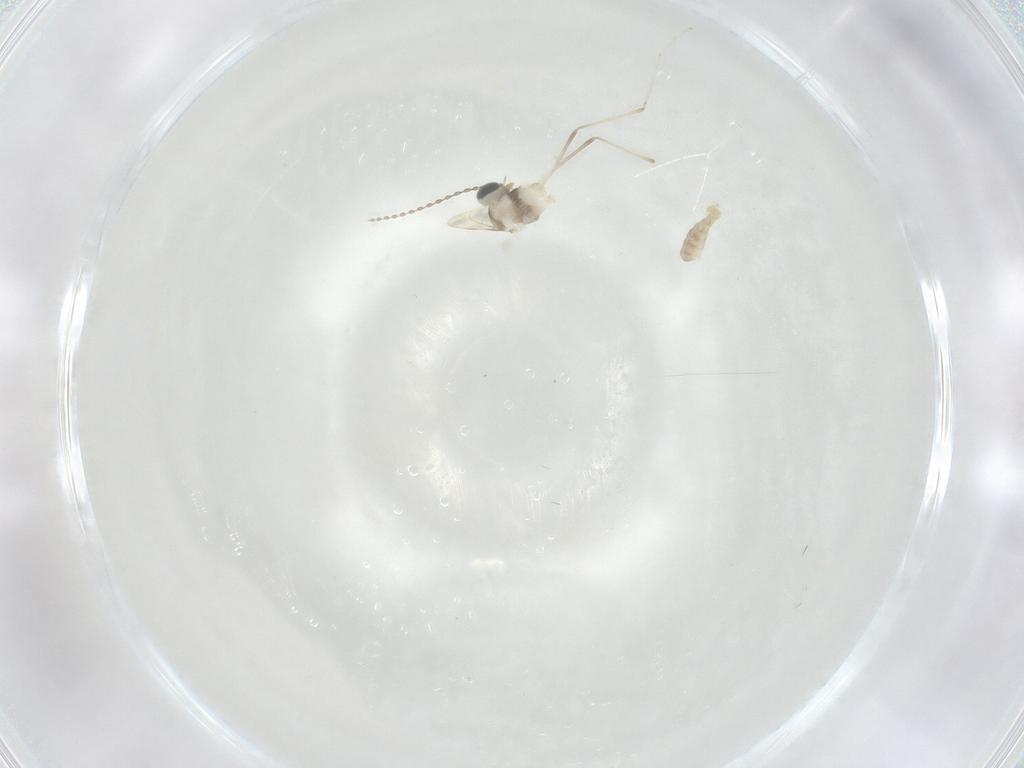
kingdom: Animalia
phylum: Arthropoda
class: Insecta
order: Diptera
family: Cecidomyiidae
